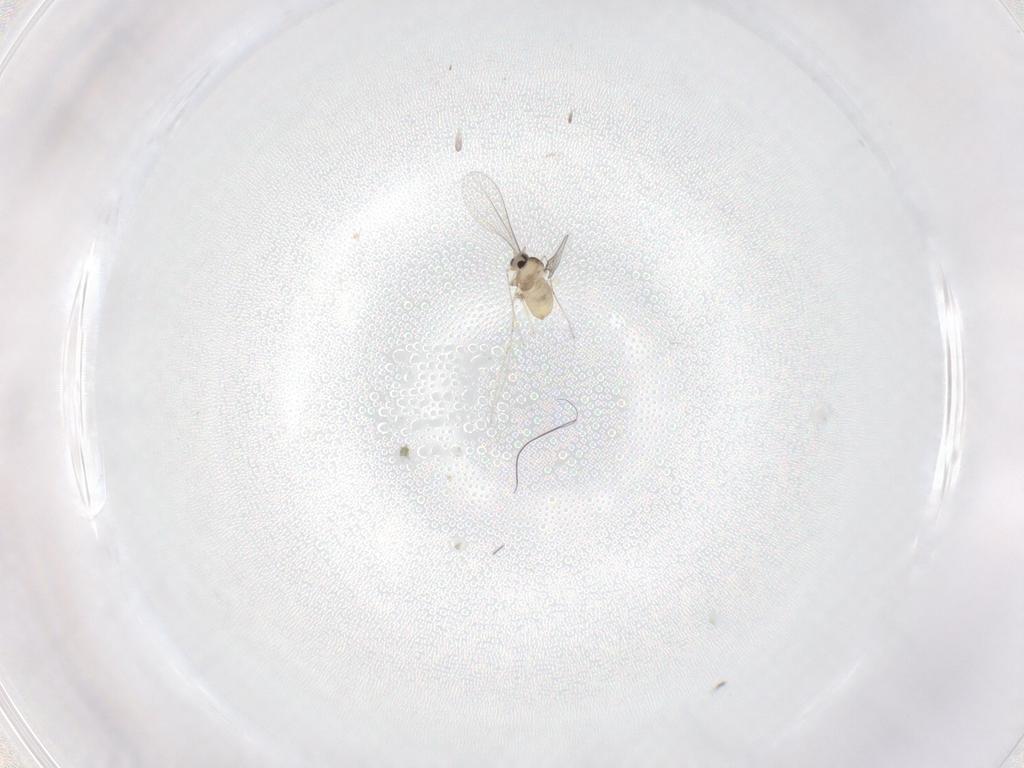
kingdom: Animalia
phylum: Arthropoda
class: Insecta
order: Diptera
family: Cecidomyiidae
